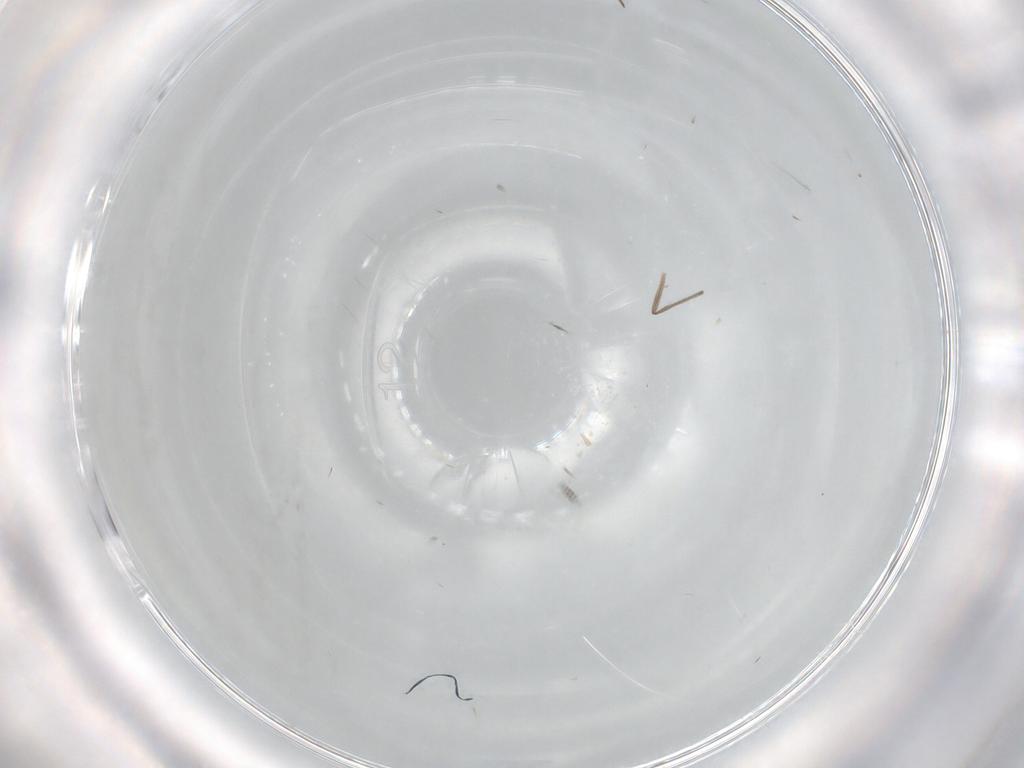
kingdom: Animalia
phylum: Arthropoda
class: Insecta
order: Diptera
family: Sciaridae
